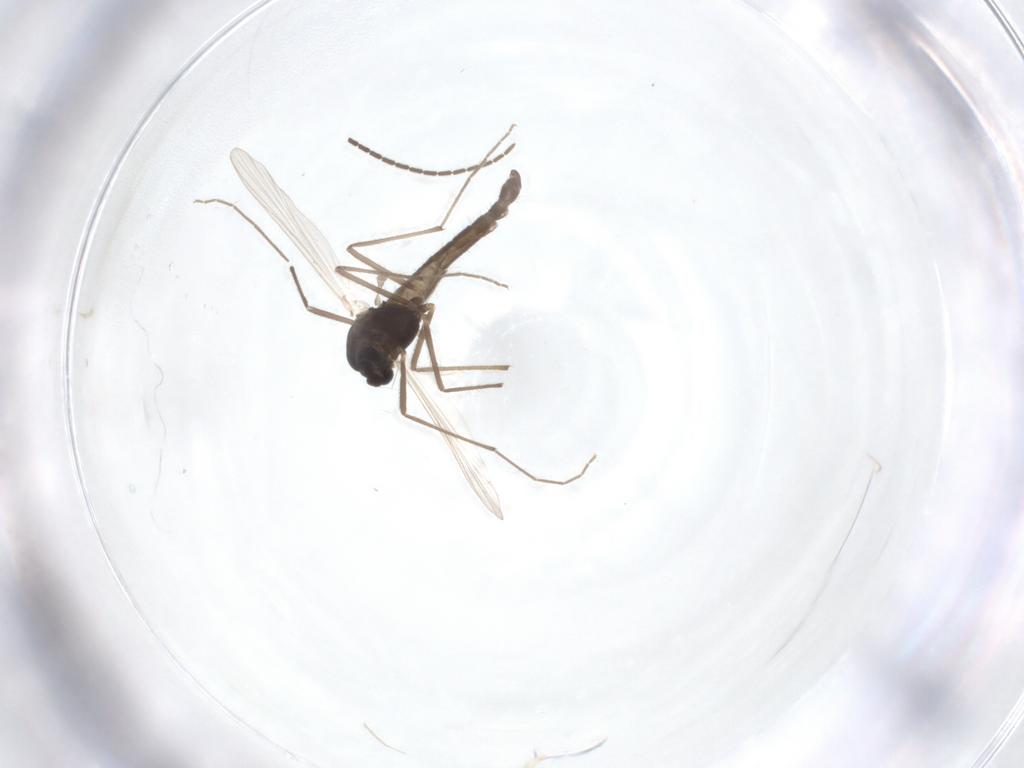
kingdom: Animalia
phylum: Arthropoda
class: Insecta
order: Diptera
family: Chironomidae
